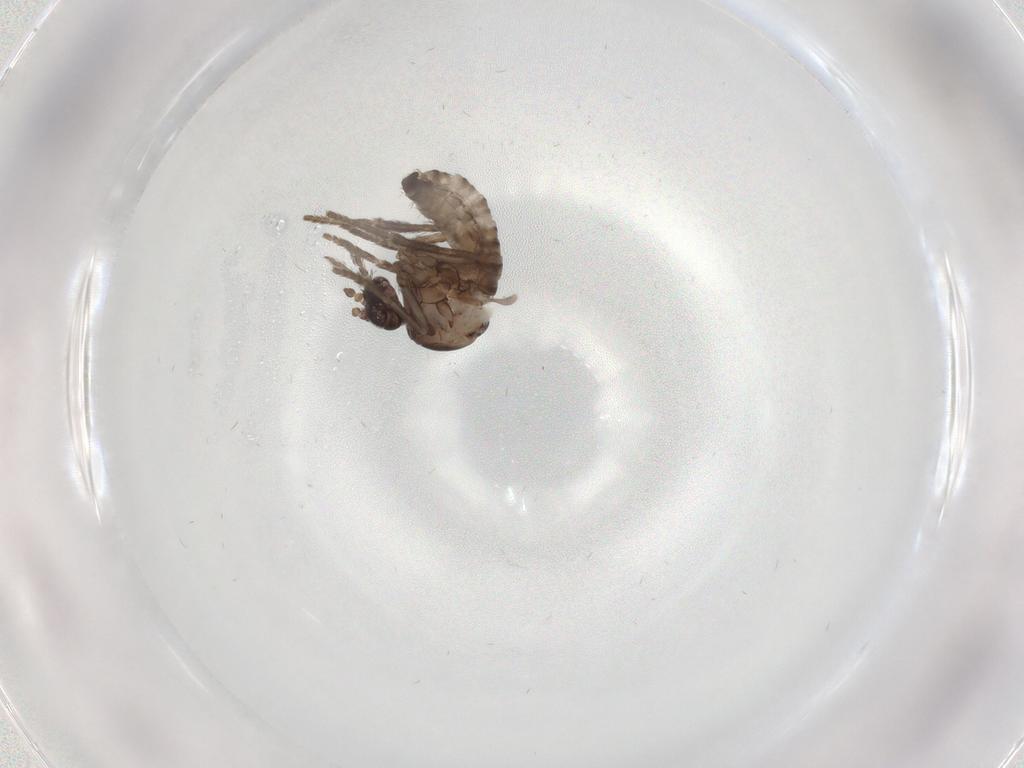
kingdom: Animalia
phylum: Arthropoda
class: Insecta
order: Diptera
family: Psychodidae
